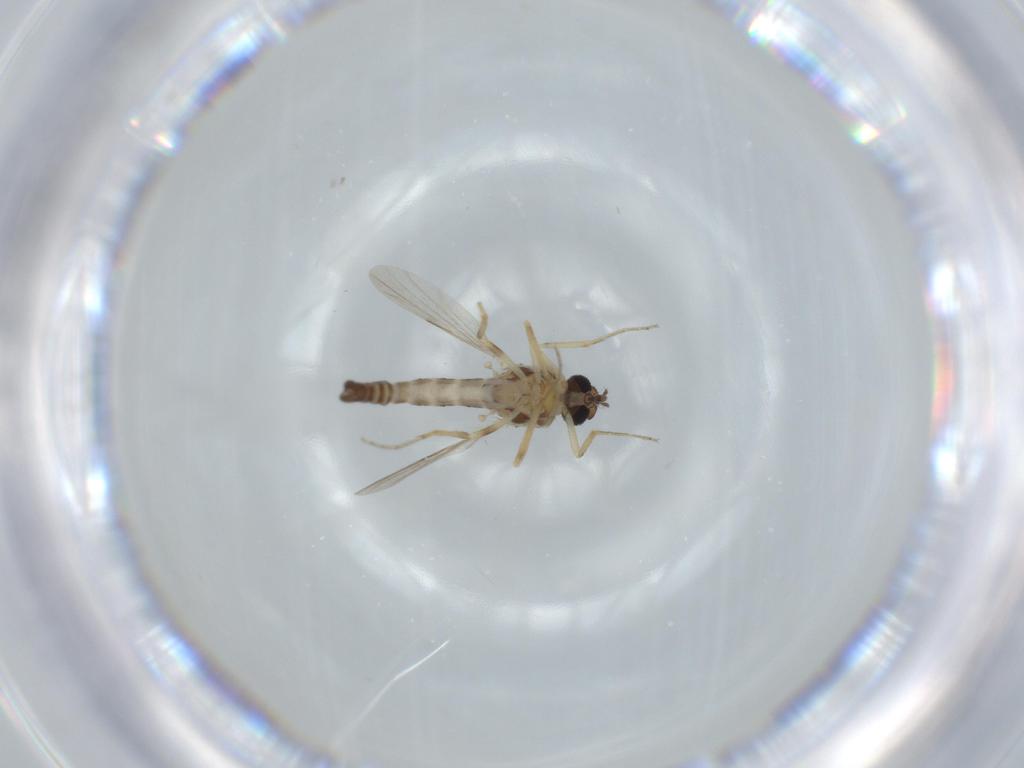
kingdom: Animalia
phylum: Arthropoda
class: Insecta
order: Diptera
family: Ceratopogonidae
